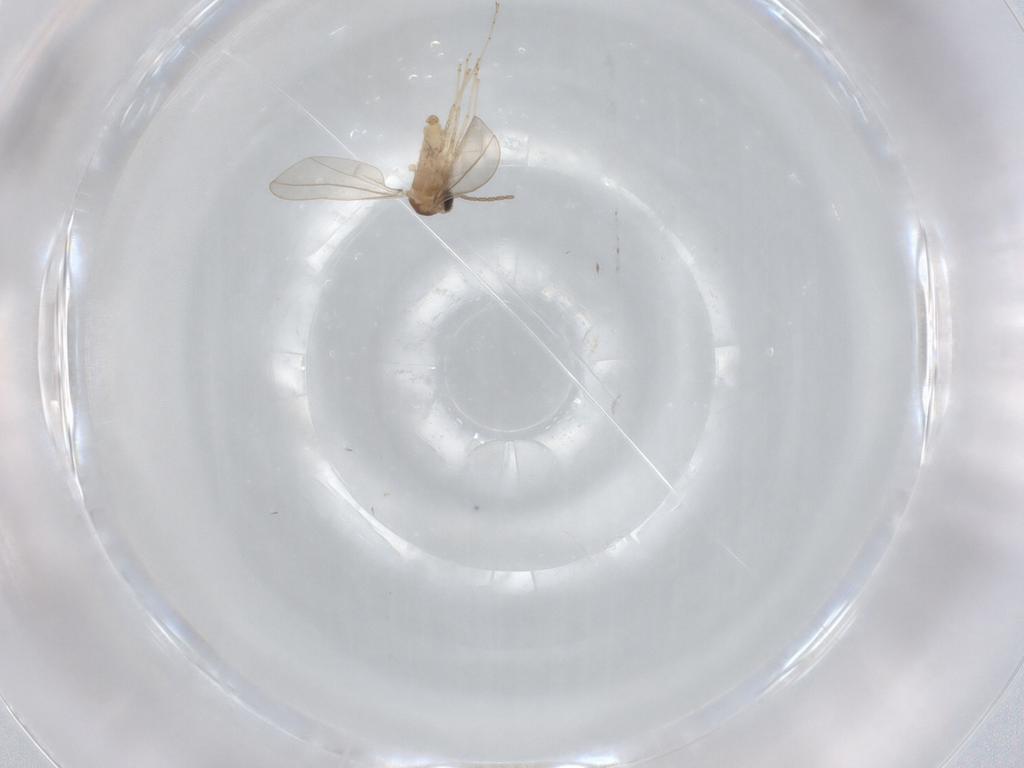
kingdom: Animalia
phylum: Arthropoda
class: Insecta
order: Diptera
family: Cecidomyiidae
